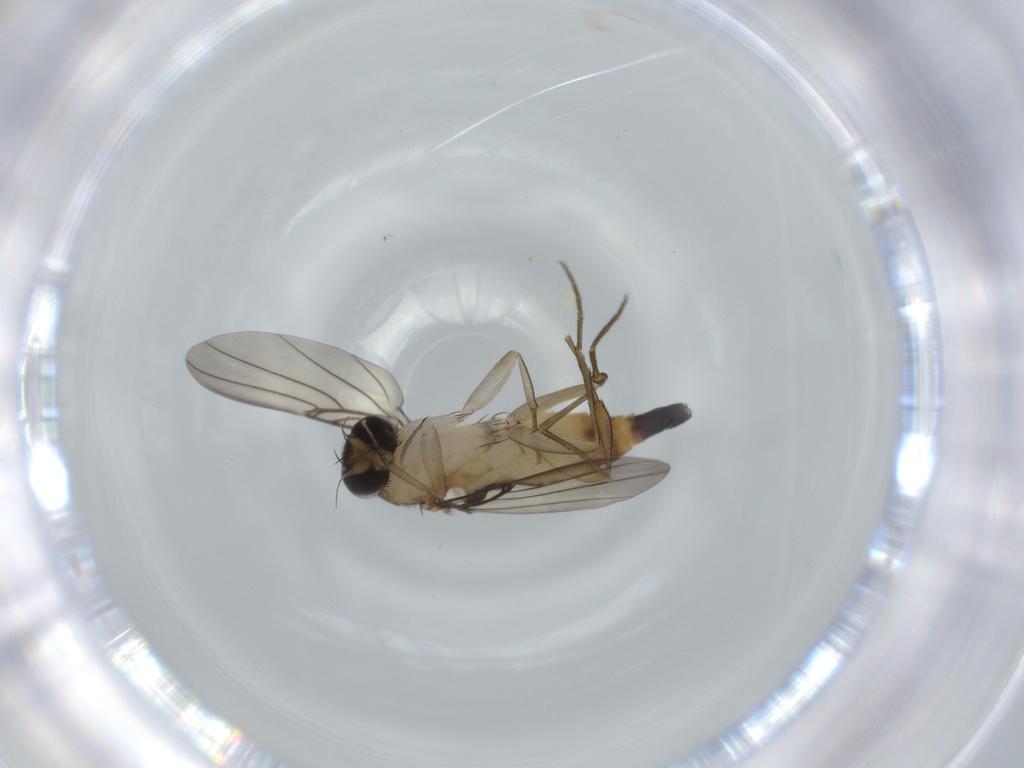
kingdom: Animalia
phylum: Arthropoda
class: Insecta
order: Diptera
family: Phoridae
